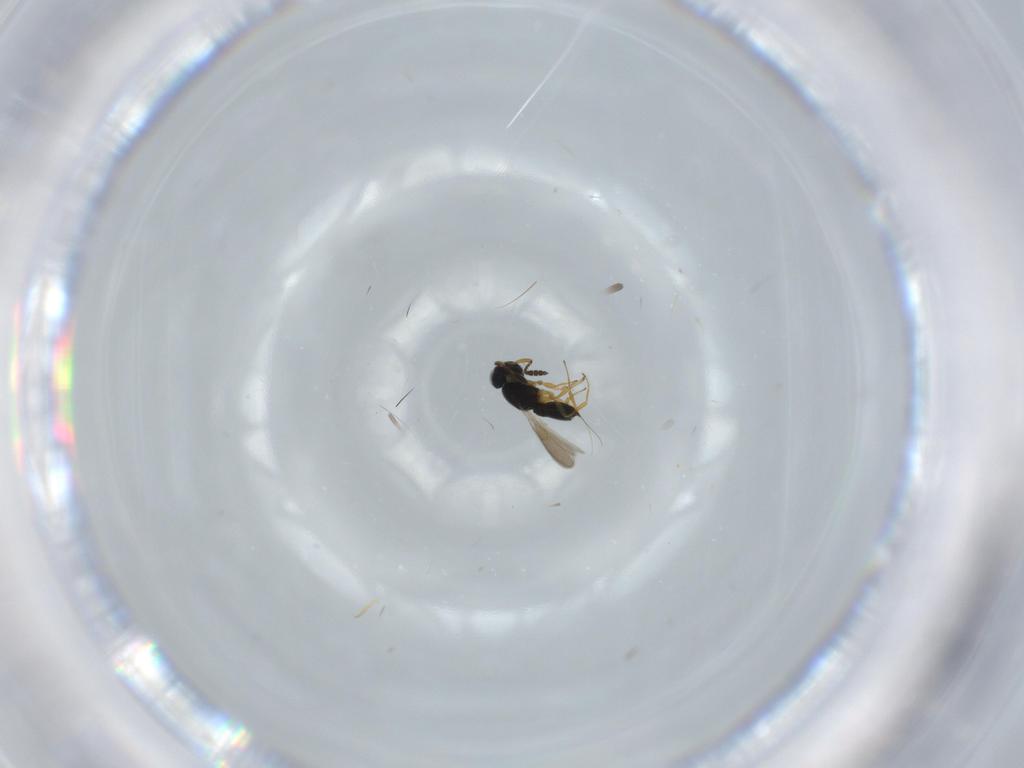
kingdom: Animalia
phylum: Arthropoda
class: Insecta
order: Hymenoptera
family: Scelionidae
